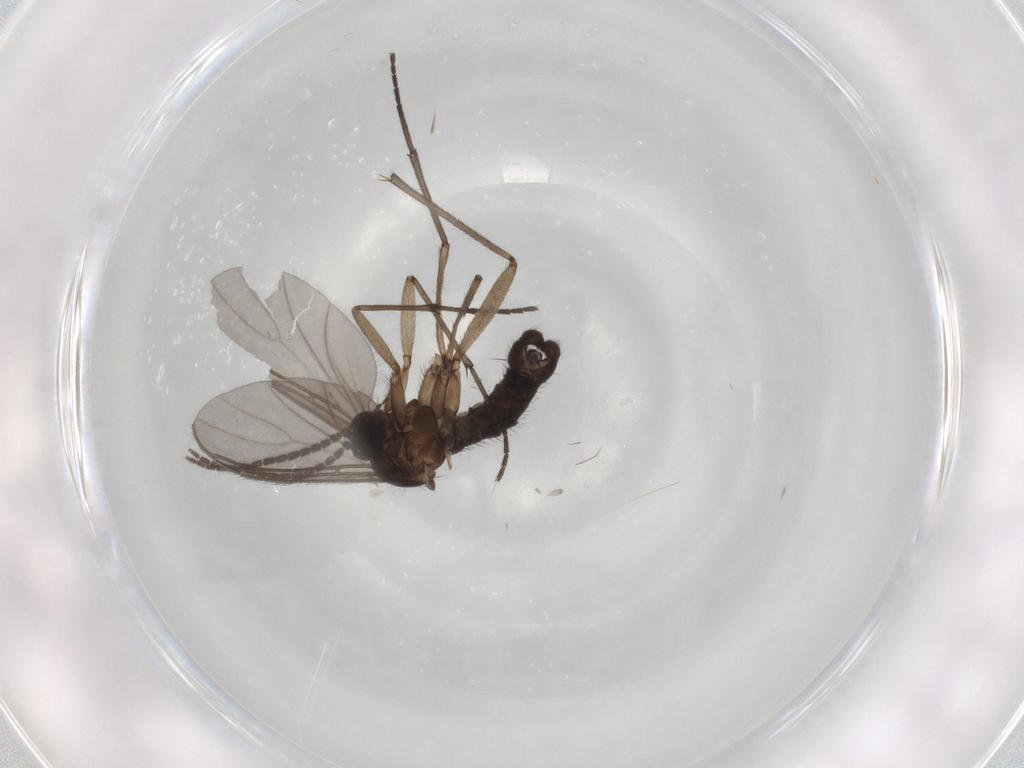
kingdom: Animalia
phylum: Arthropoda
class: Insecta
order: Diptera
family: Sciaridae
